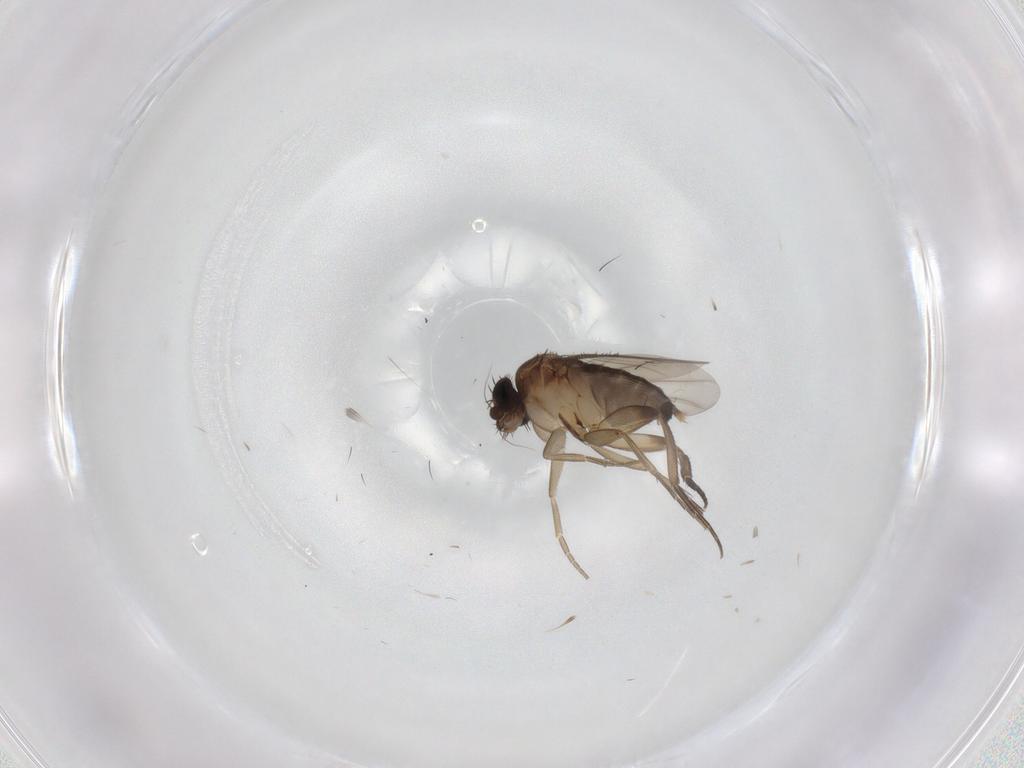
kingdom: Animalia
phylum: Arthropoda
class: Insecta
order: Diptera
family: Phoridae
